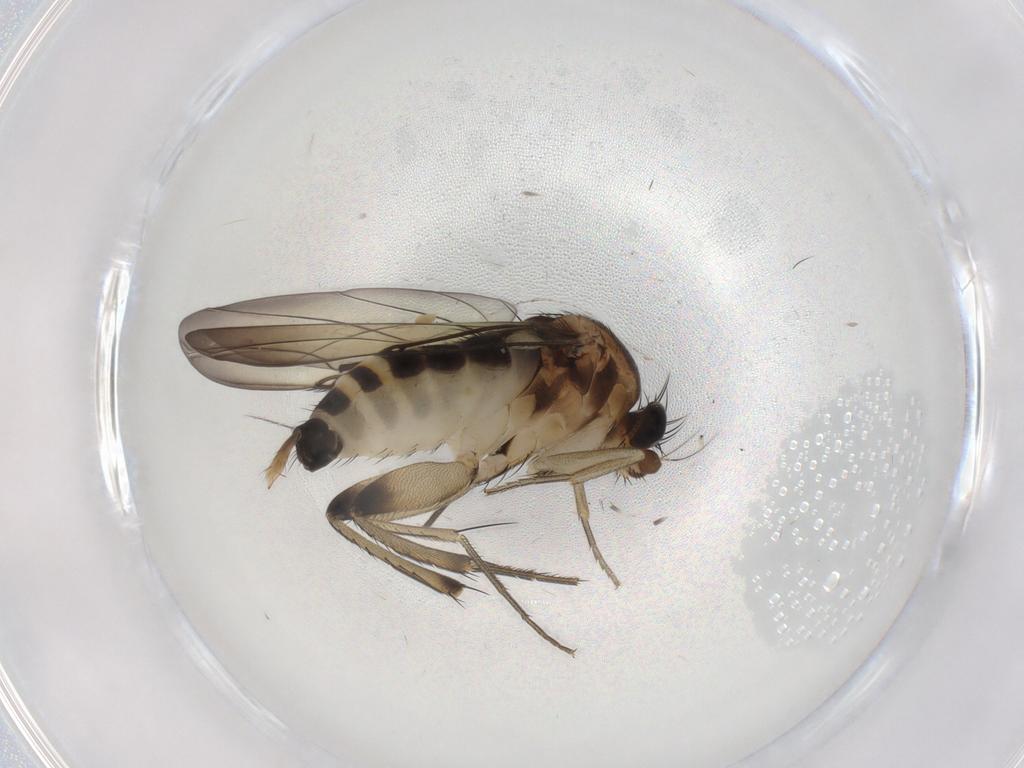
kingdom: Animalia
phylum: Arthropoda
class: Insecta
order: Diptera
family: Phoridae
